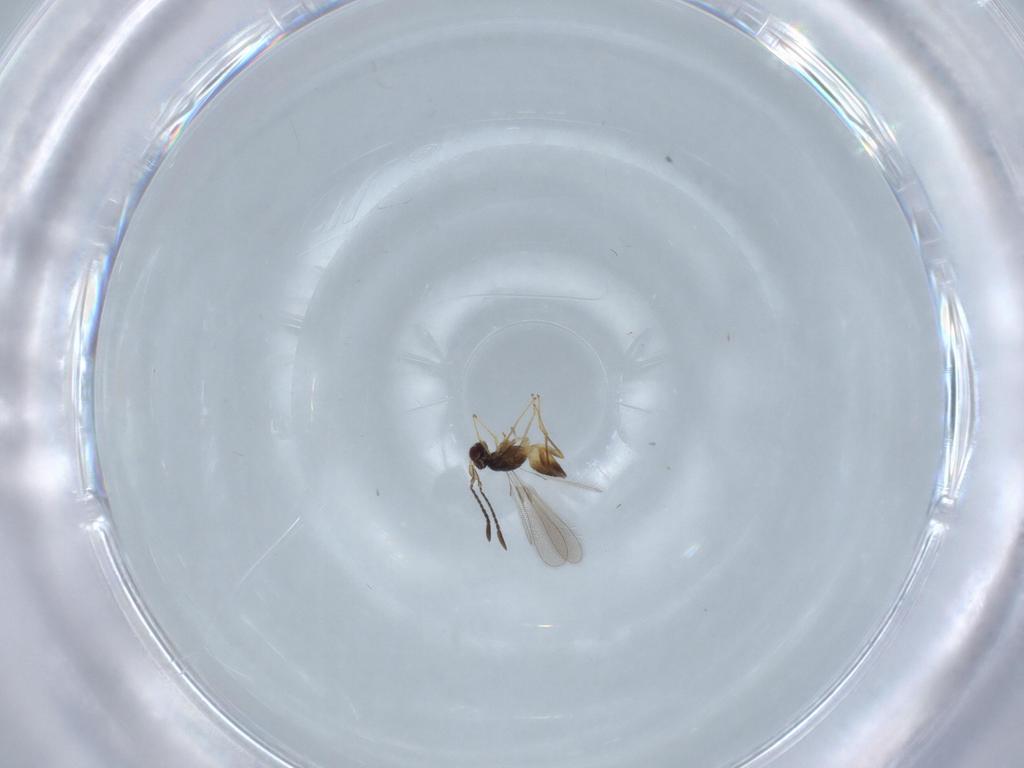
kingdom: Animalia
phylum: Arthropoda
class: Insecta
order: Hymenoptera
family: Mymaridae
